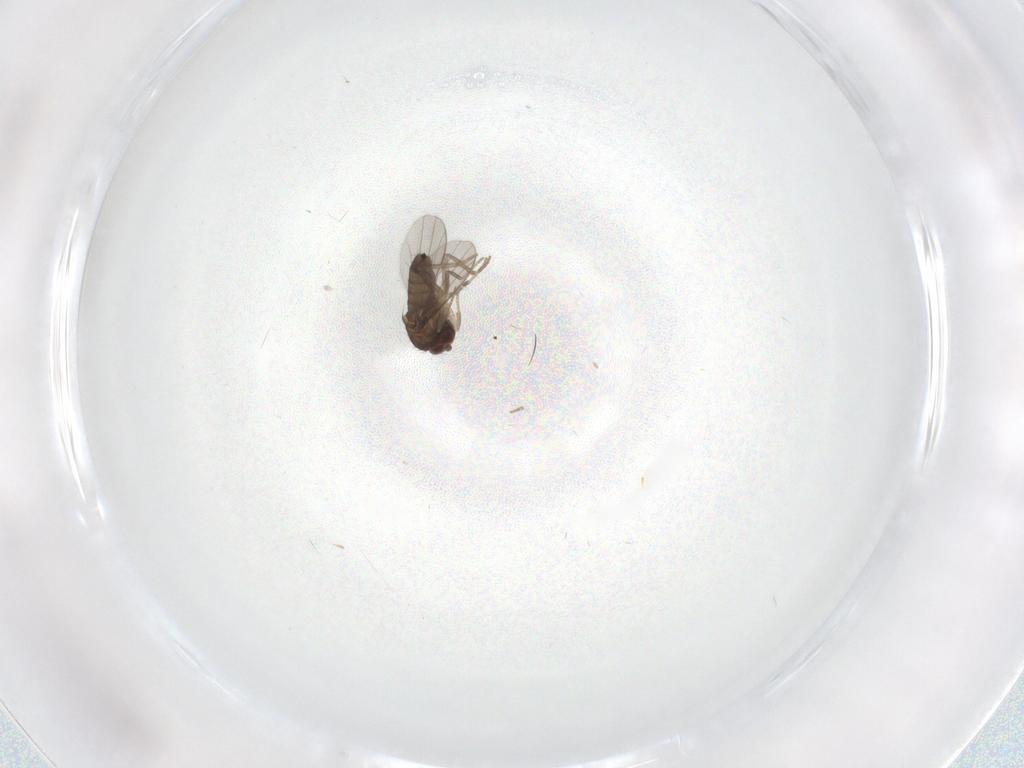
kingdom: Animalia
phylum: Arthropoda
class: Insecta
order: Diptera
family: Dolichopodidae
